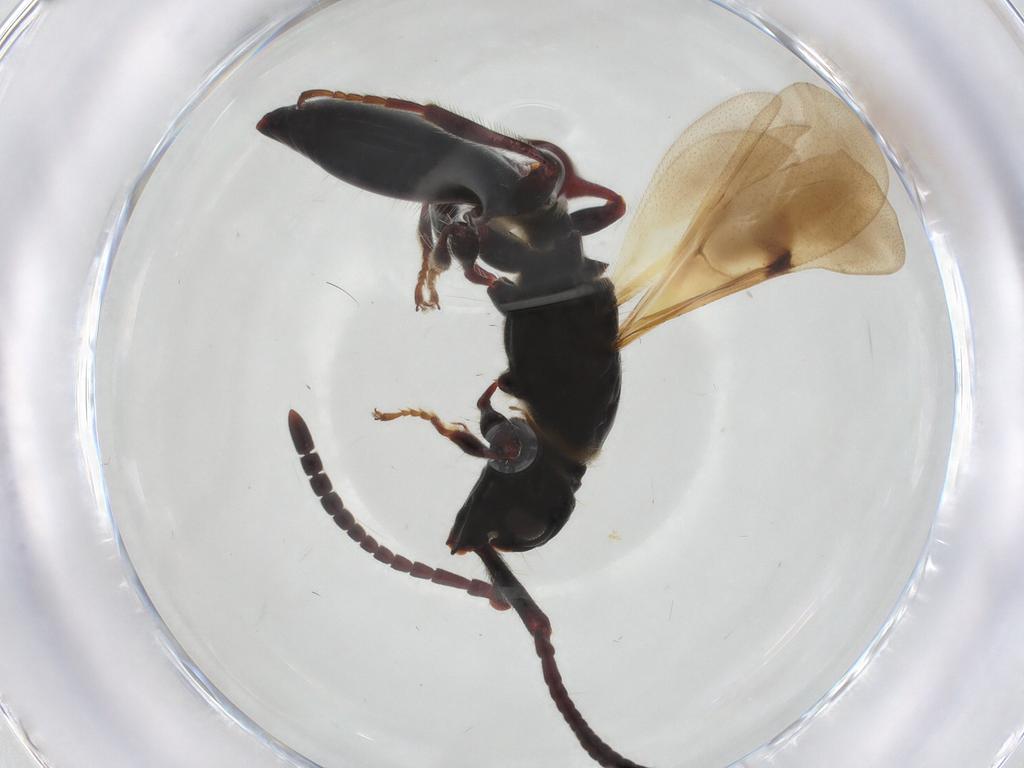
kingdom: Animalia
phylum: Arthropoda
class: Insecta
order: Hymenoptera
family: Diapriidae
